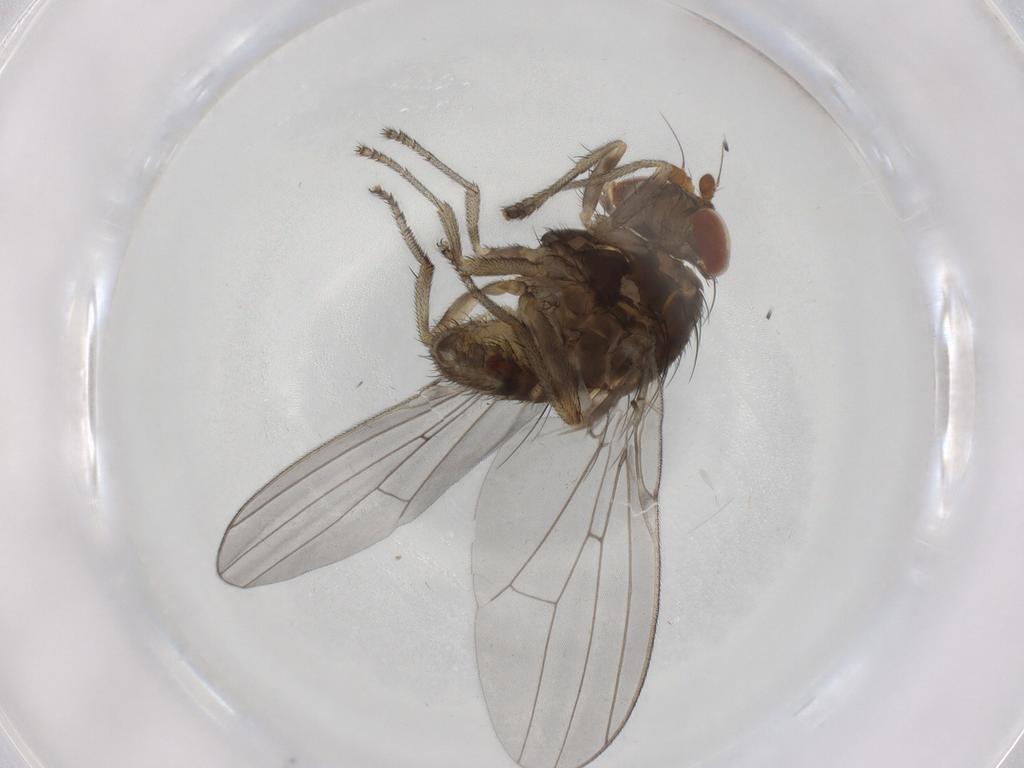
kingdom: Animalia
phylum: Arthropoda
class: Insecta
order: Diptera
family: Lauxaniidae
